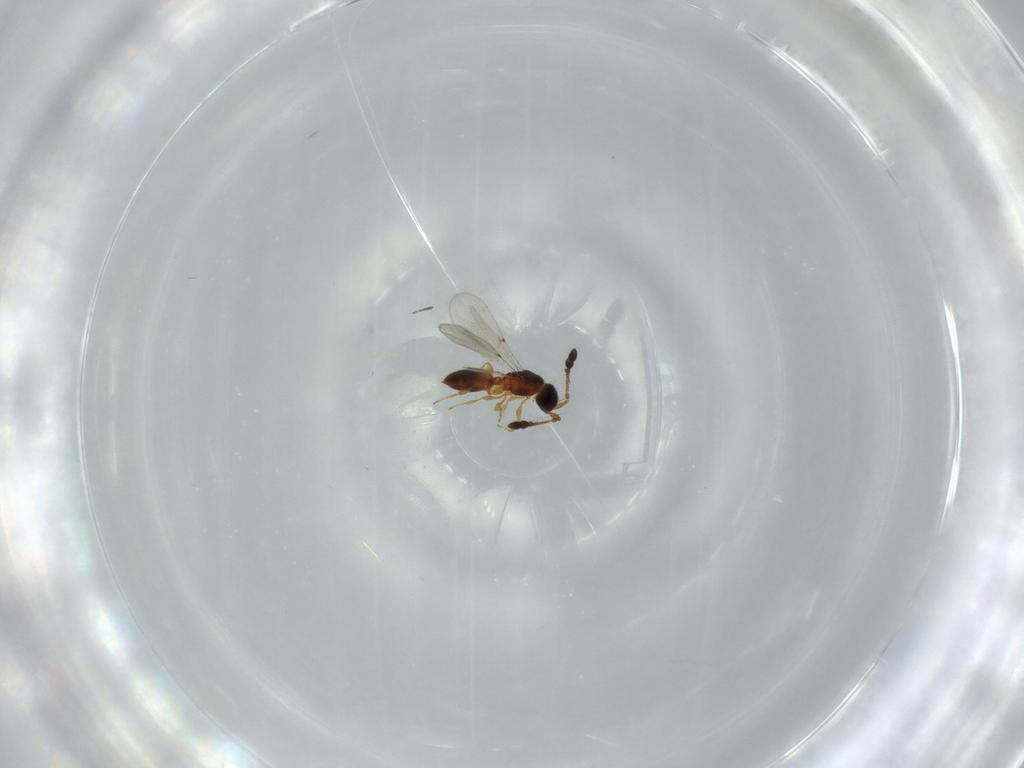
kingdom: Animalia
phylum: Arthropoda
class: Insecta
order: Hymenoptera
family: Diapriidae
